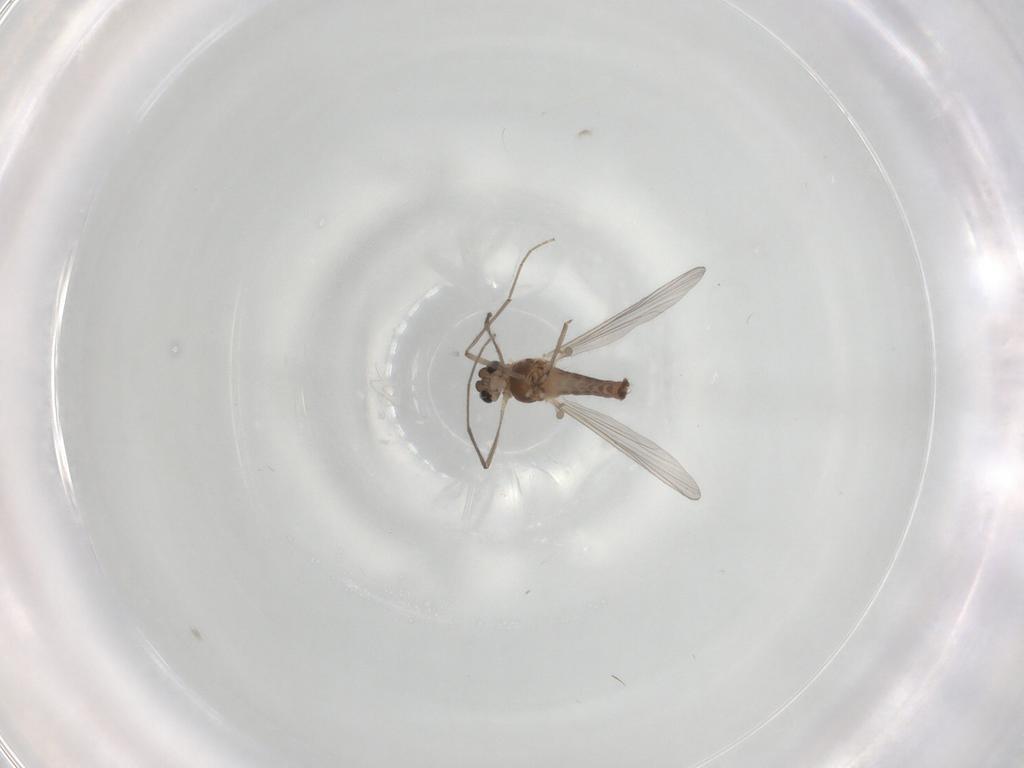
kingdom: Animalia
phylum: Arthropoda
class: Insecta
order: Diptera
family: Chironomidae
